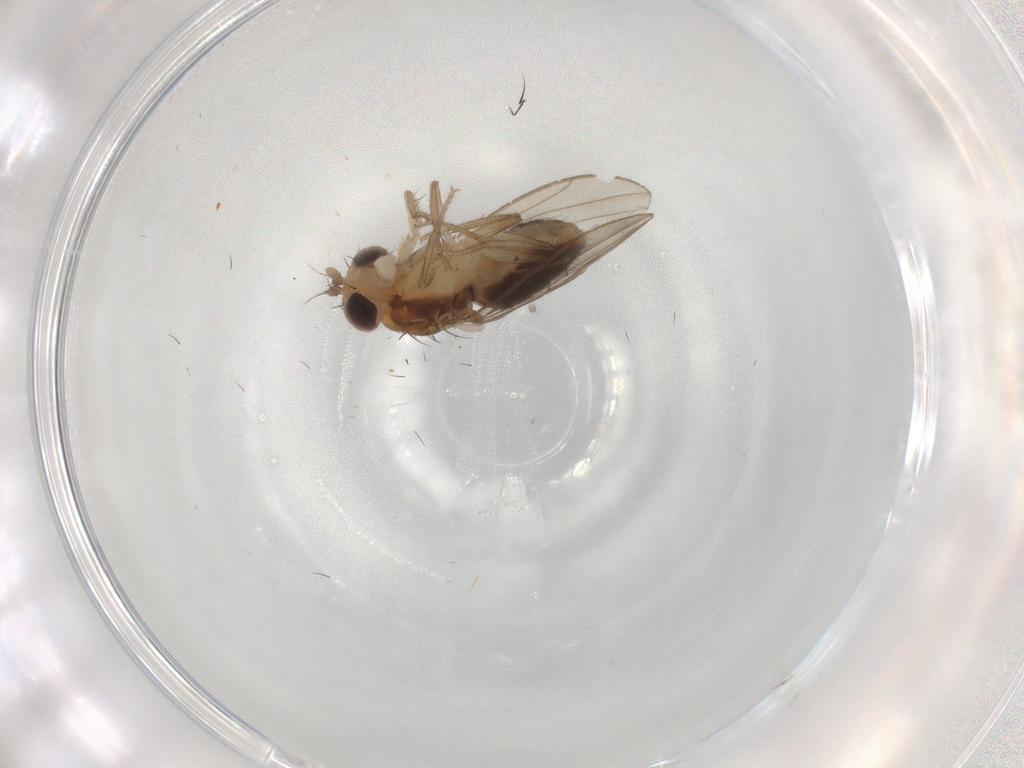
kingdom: Animalia
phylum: Arthropoda
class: Insecta
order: Diptera
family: Drosophilidae
